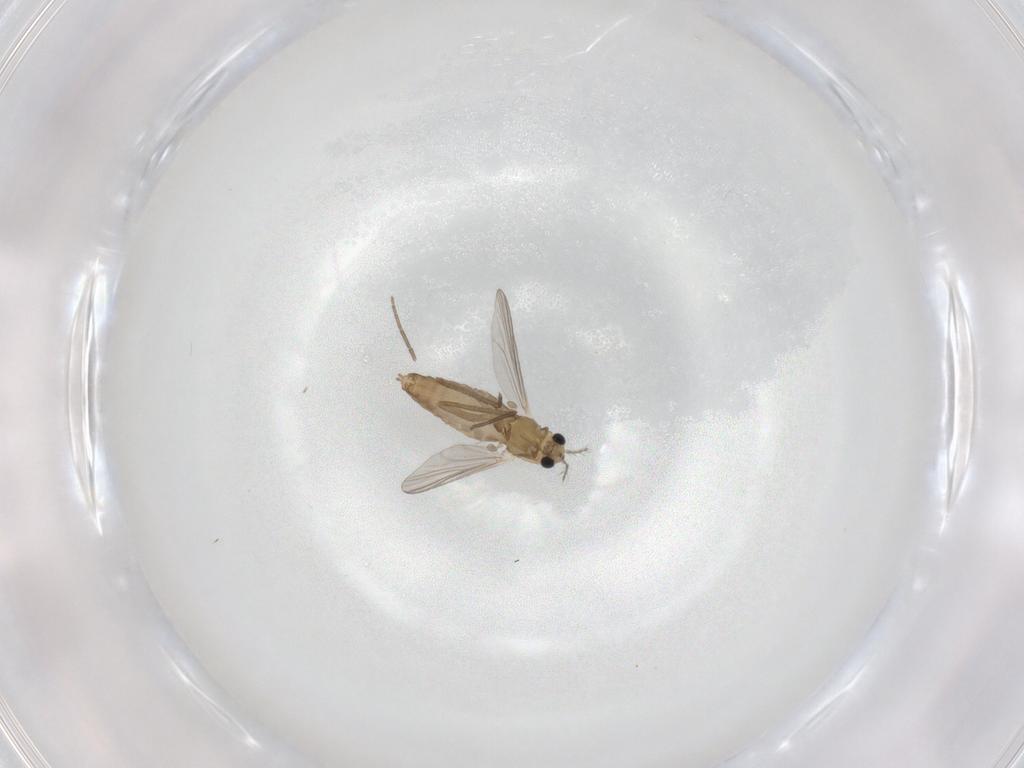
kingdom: Animalia
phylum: Arthropoda
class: Insecta
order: Diptera
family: Chironomidae
